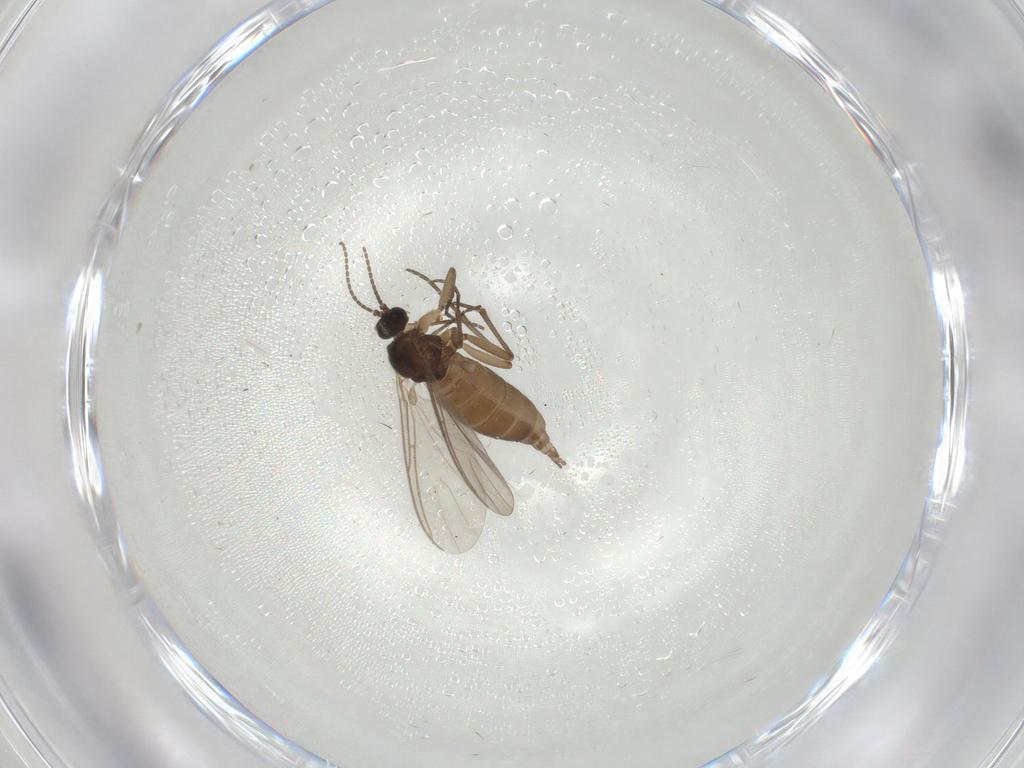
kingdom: Animalia
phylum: Arthropoda
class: Insecta
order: Diptera
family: Sciaridae
